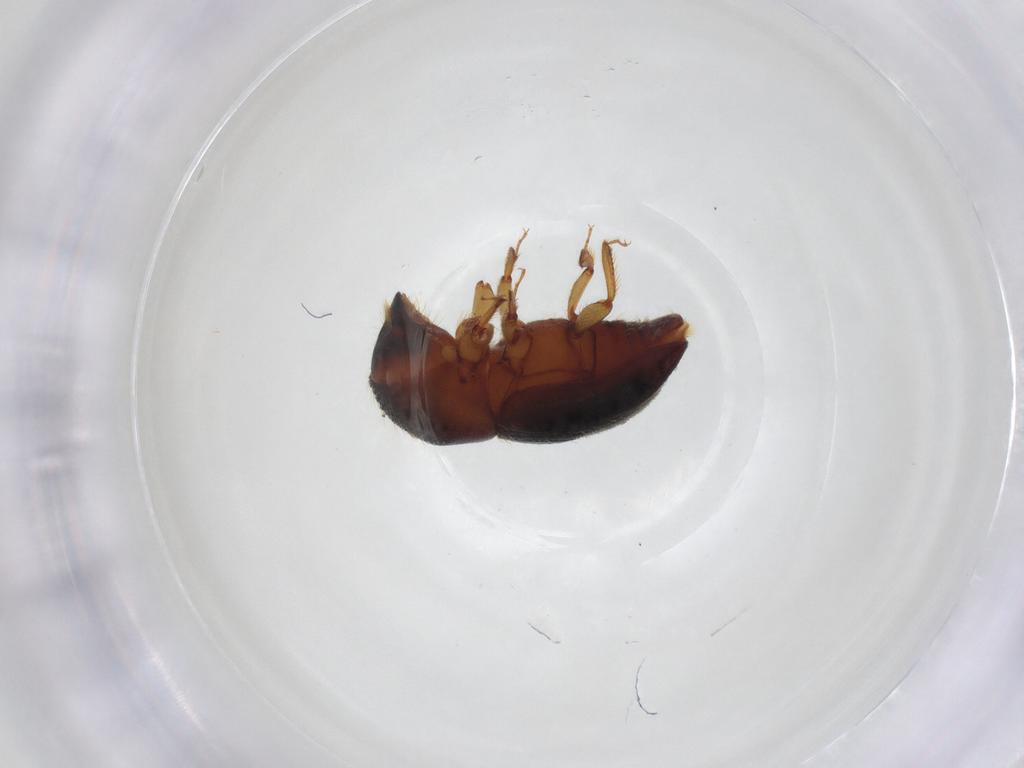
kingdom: Animalia
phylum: Arthropoda
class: Insecta
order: Coleoptera
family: Curculionidae
